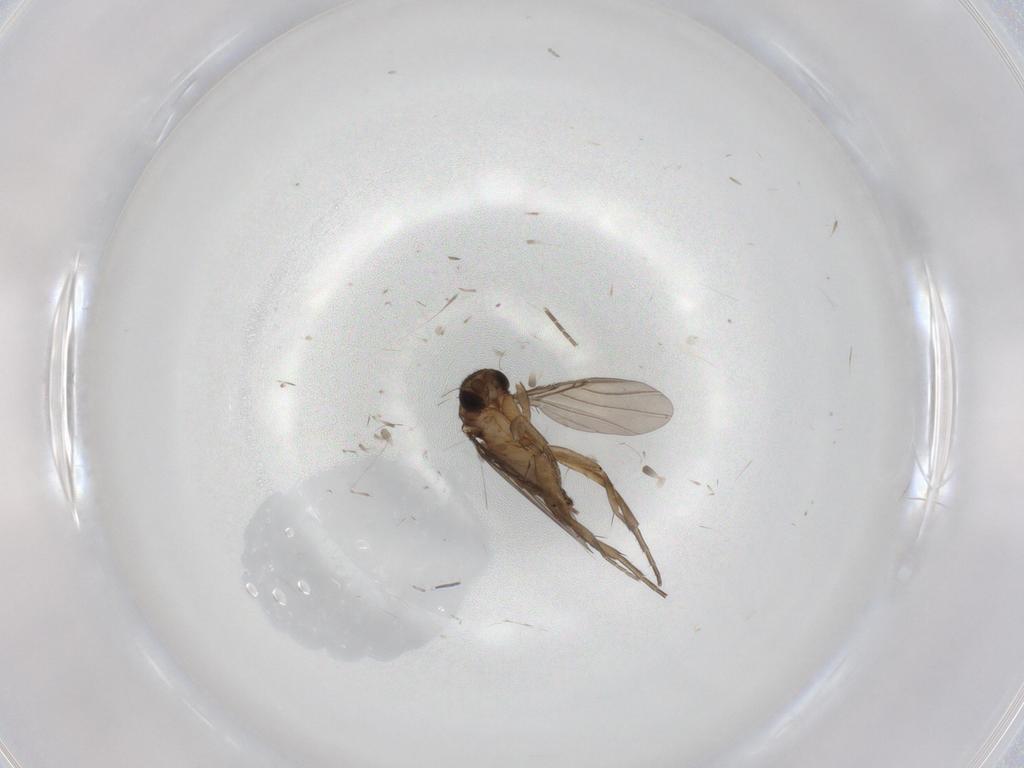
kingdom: Animalia
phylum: Arthropoda
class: Insecta
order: Diptera
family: Phoridae
